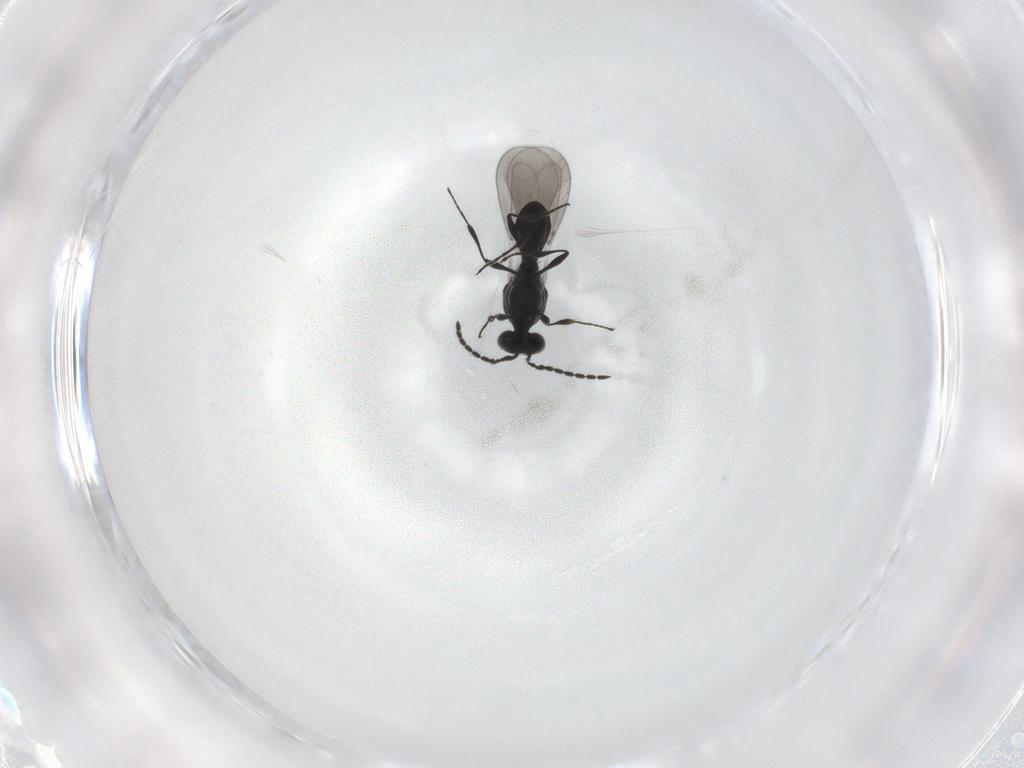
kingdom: Animalia
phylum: Arthropoda
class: Insecta
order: Diptera
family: Mythicomyiidae
